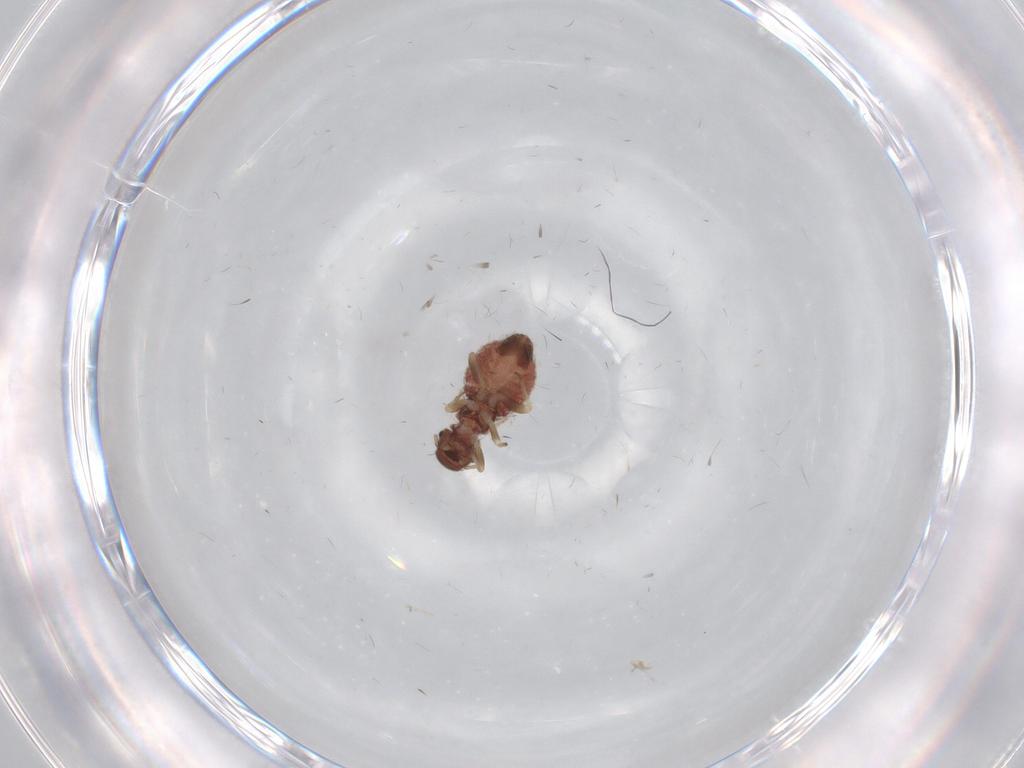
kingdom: Animalia
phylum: Arthropoda
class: Insecta
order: Psocodea
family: Archipsocidae
